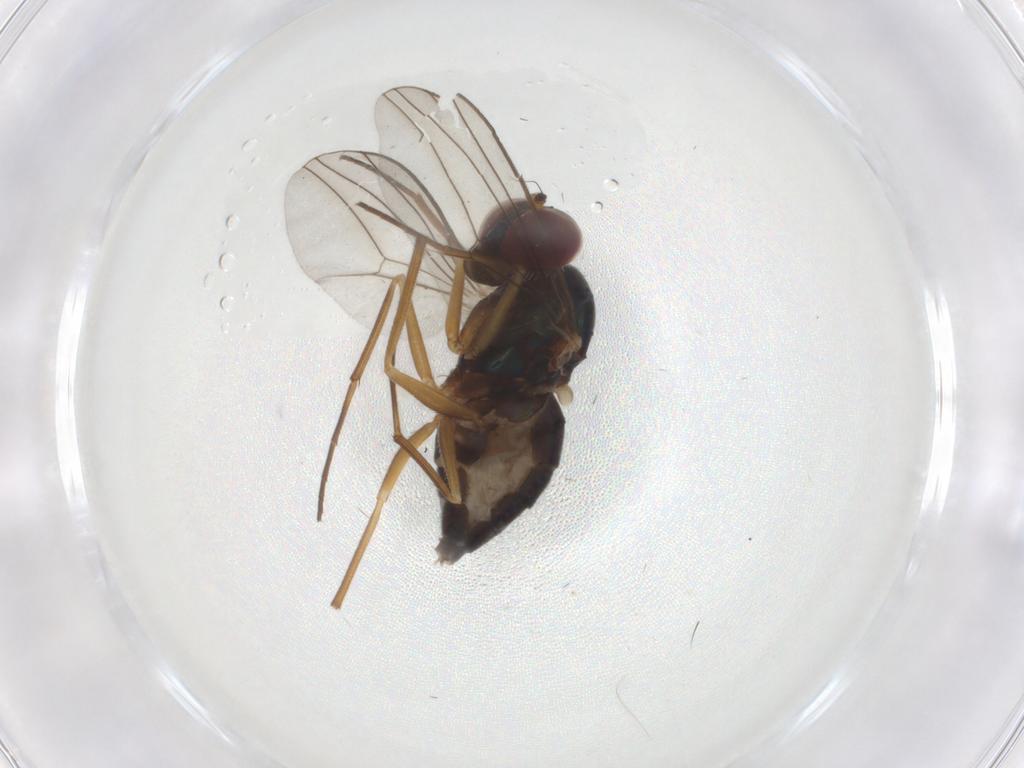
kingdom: Animalia
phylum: Arthropoda
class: Insecta
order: Diptera
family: Dolichopodidae
